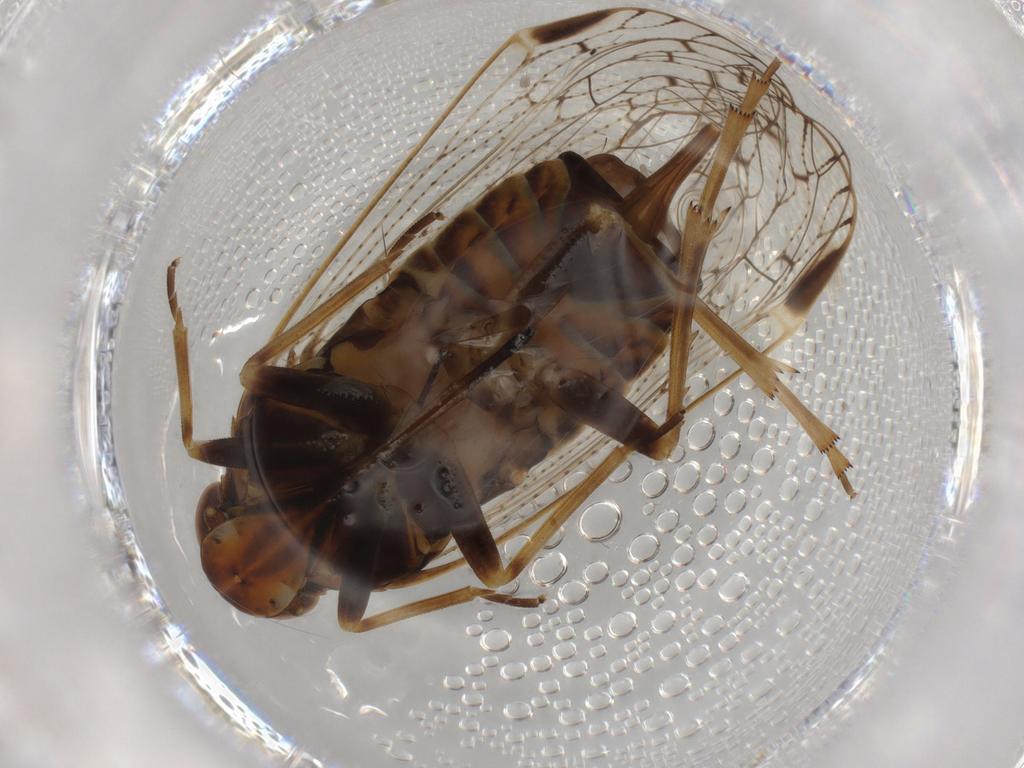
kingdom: Animalia
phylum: Arthropoda
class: Insecta
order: Hemiptera
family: Cixiidae
